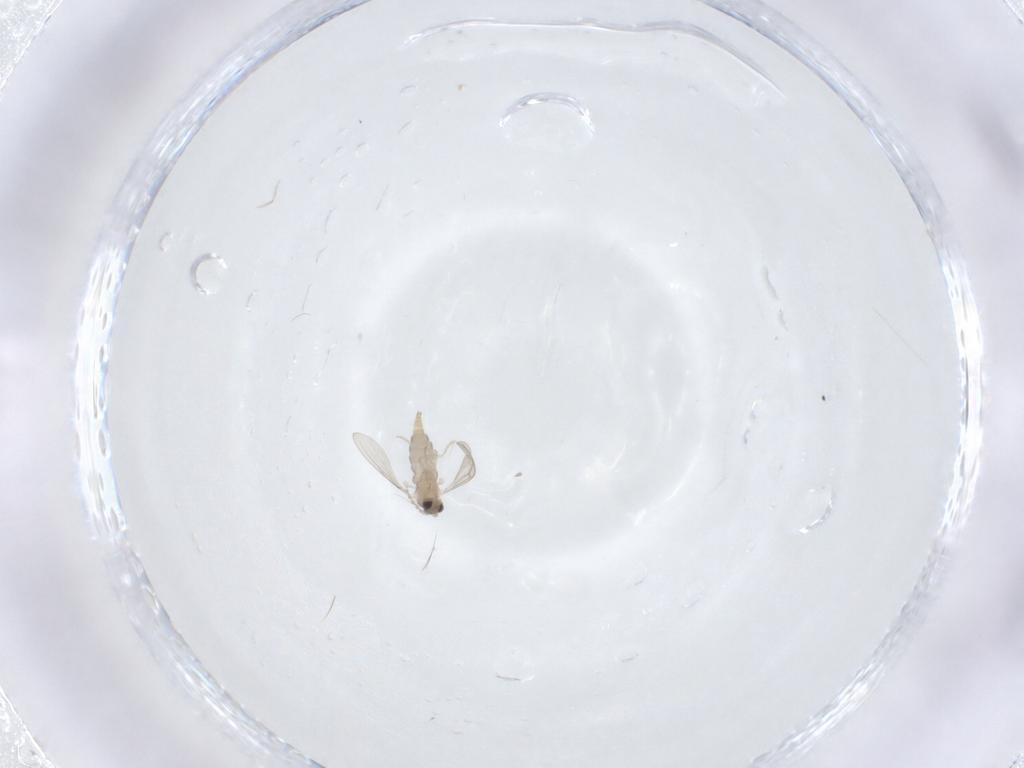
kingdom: Animalia
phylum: Arthropoda
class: Insecta
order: Diptera
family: Cecidomyiidae
